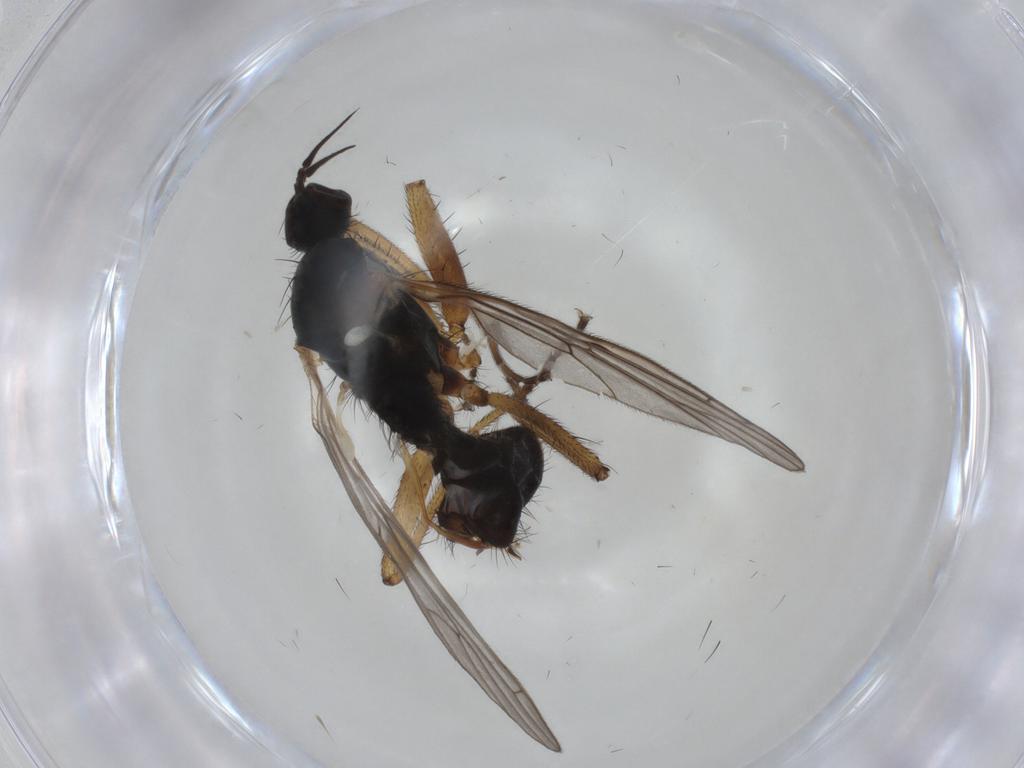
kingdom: Animalia
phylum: Arthropoda
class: Insecta
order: Diptera
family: Empididae
